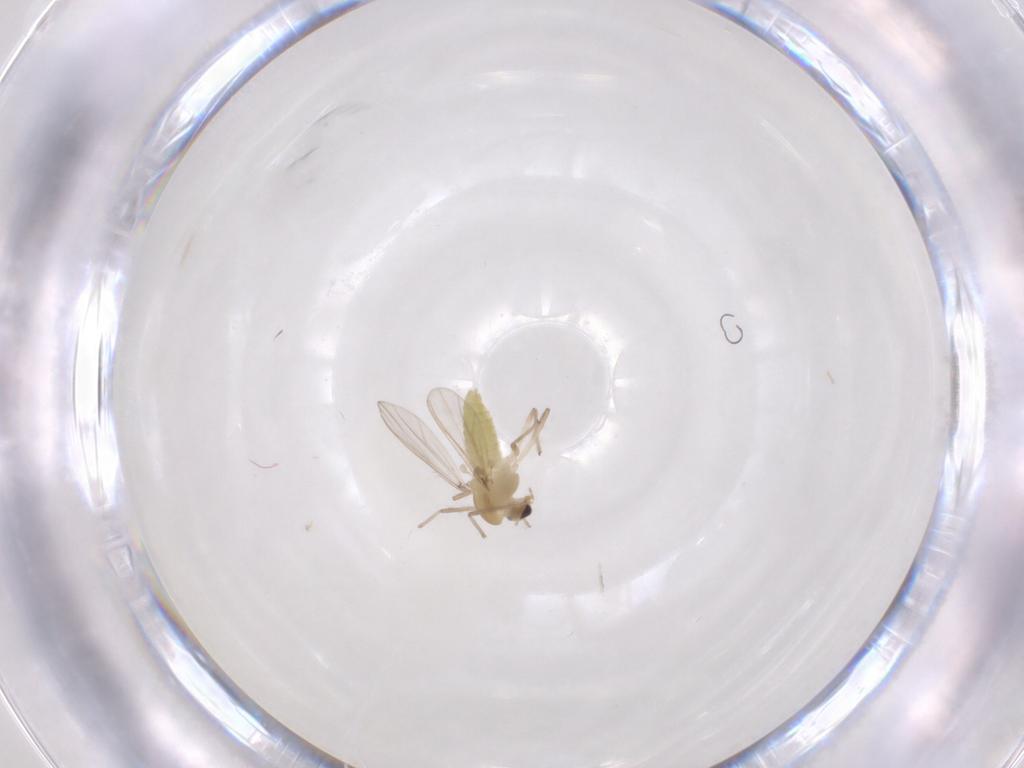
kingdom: Animalia
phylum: Arthropoda
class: Insecta
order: Diptera
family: Chironomidae
